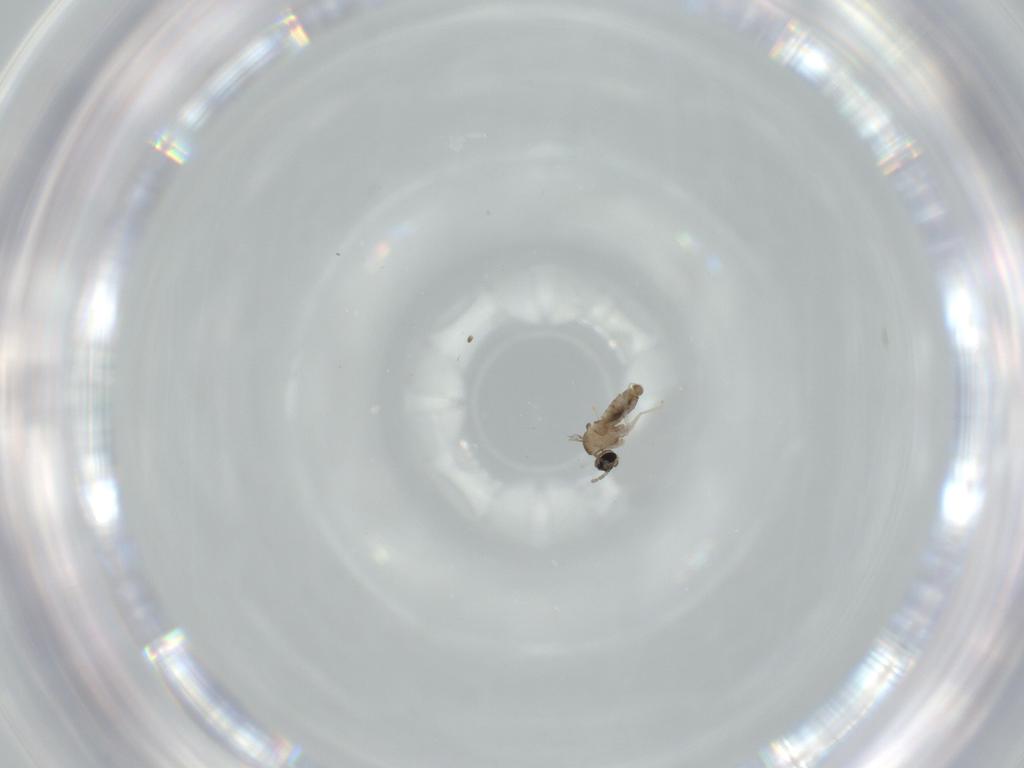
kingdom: Animalia
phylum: Arthropoda
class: Insecta
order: Diptera
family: Cecidomyiidae
